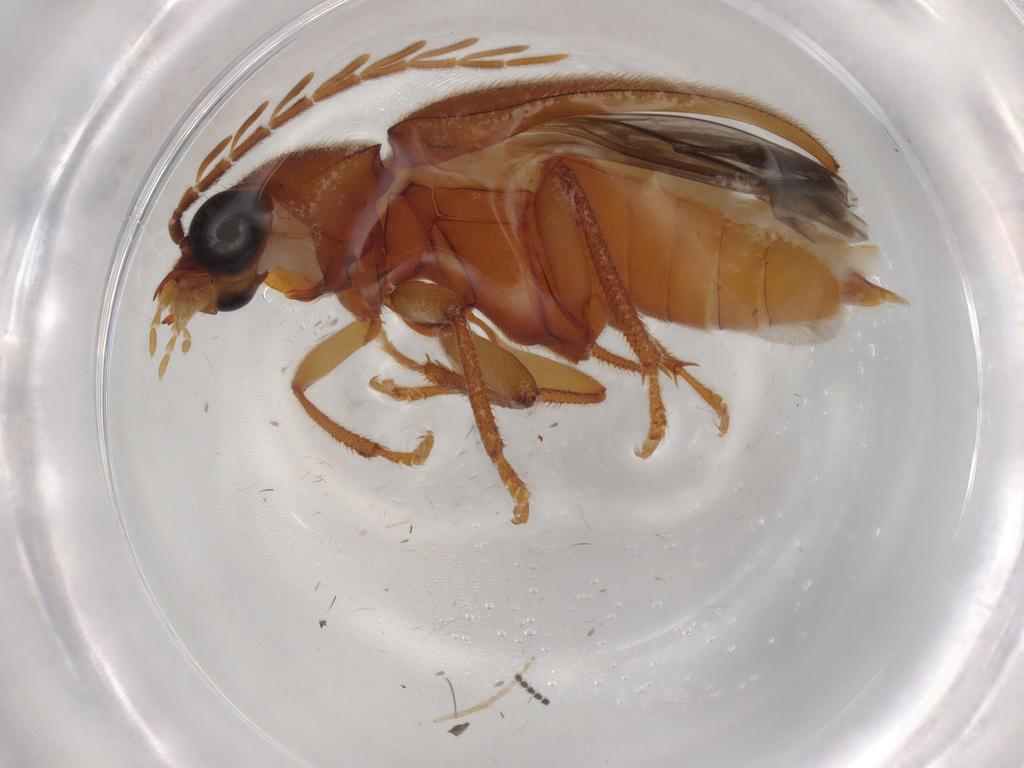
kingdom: Animalia
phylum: Arthropoda
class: Insecta
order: Coleoptera
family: Ptilodactylidae
